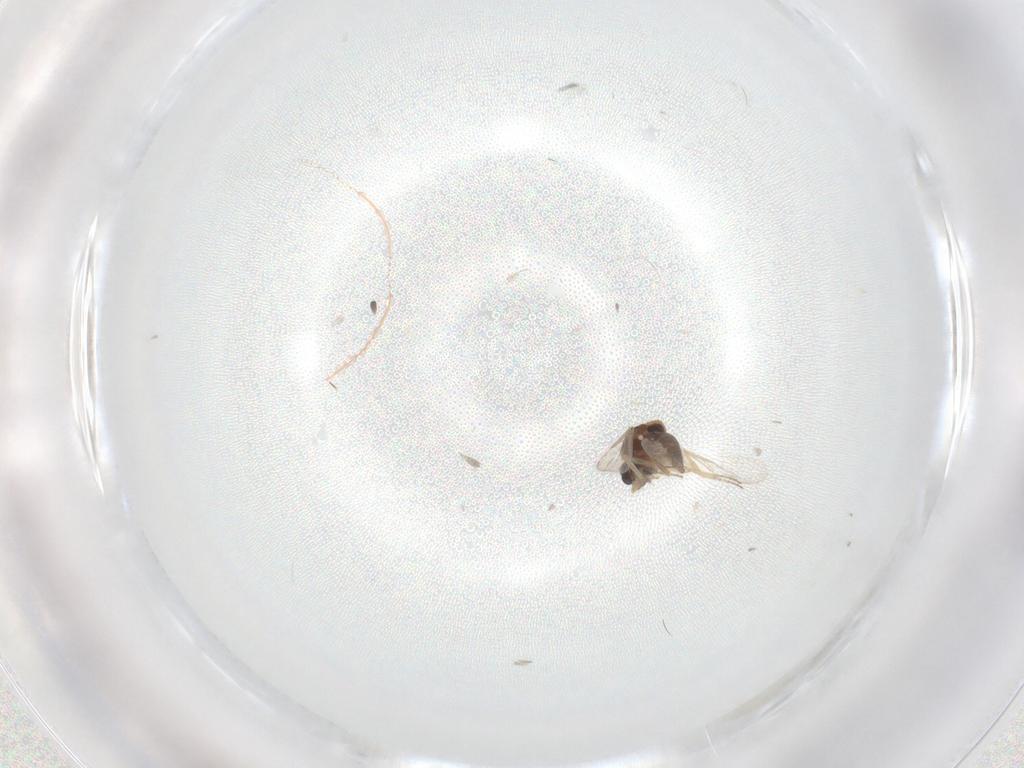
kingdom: Animalia
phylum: Arthropoda
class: Insecta
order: Diptera
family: Ceratopogonidae
